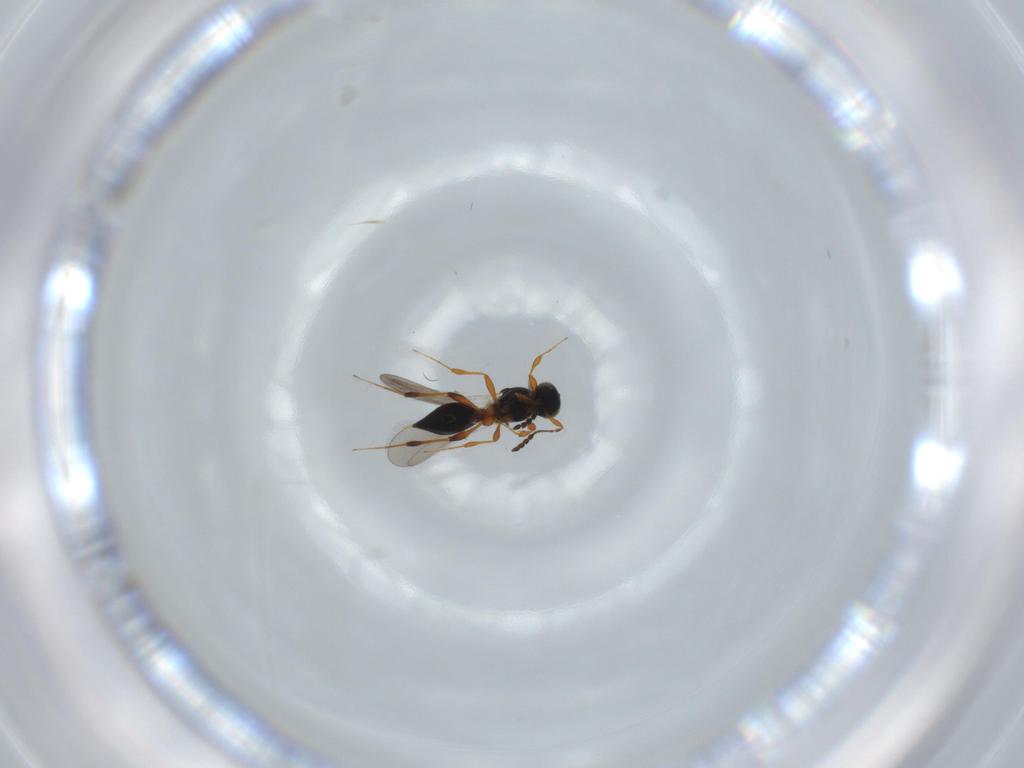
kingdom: Animalia
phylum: Arthropoda
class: Insecta
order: Hymenoptera
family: Platygastridae
